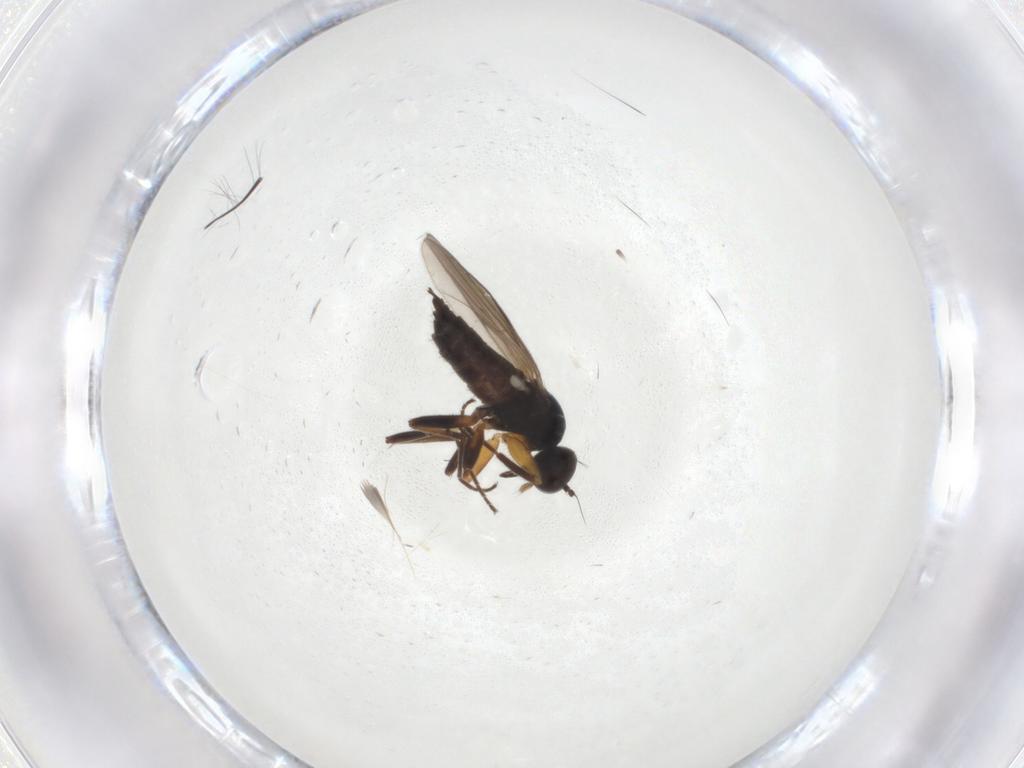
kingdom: Animalia
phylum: Arthropoda
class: Insecta
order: Diptera
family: Hybotidae
